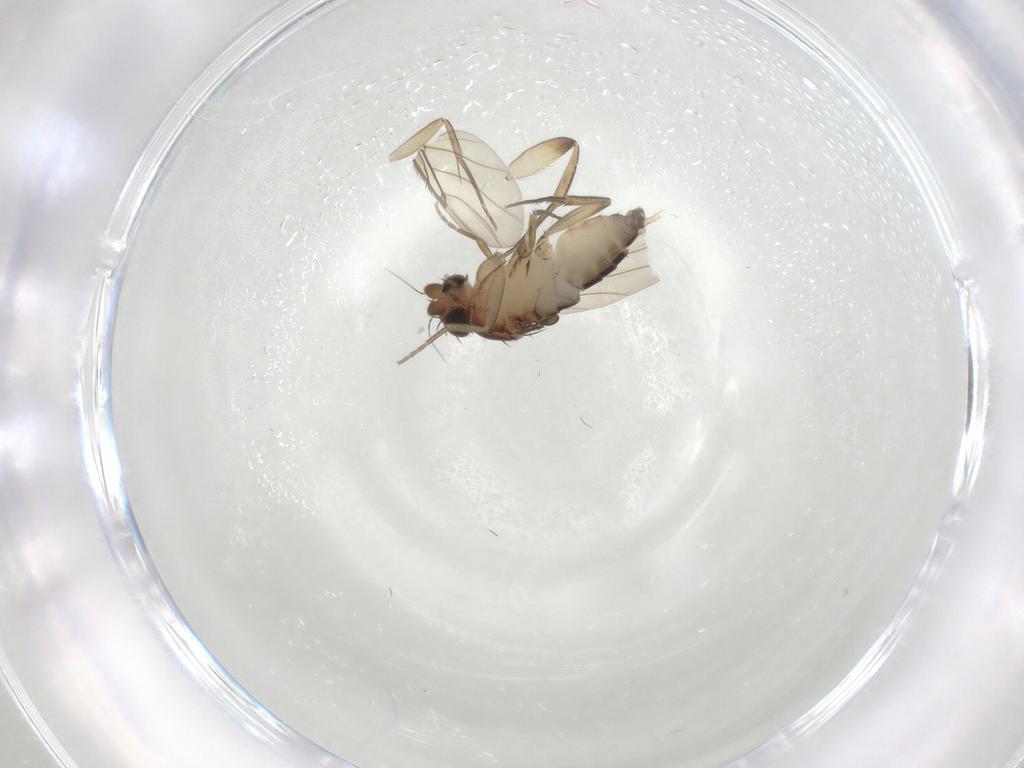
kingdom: Animalia
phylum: Arthropoda
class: Insecta
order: Diptera
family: Phoridae
